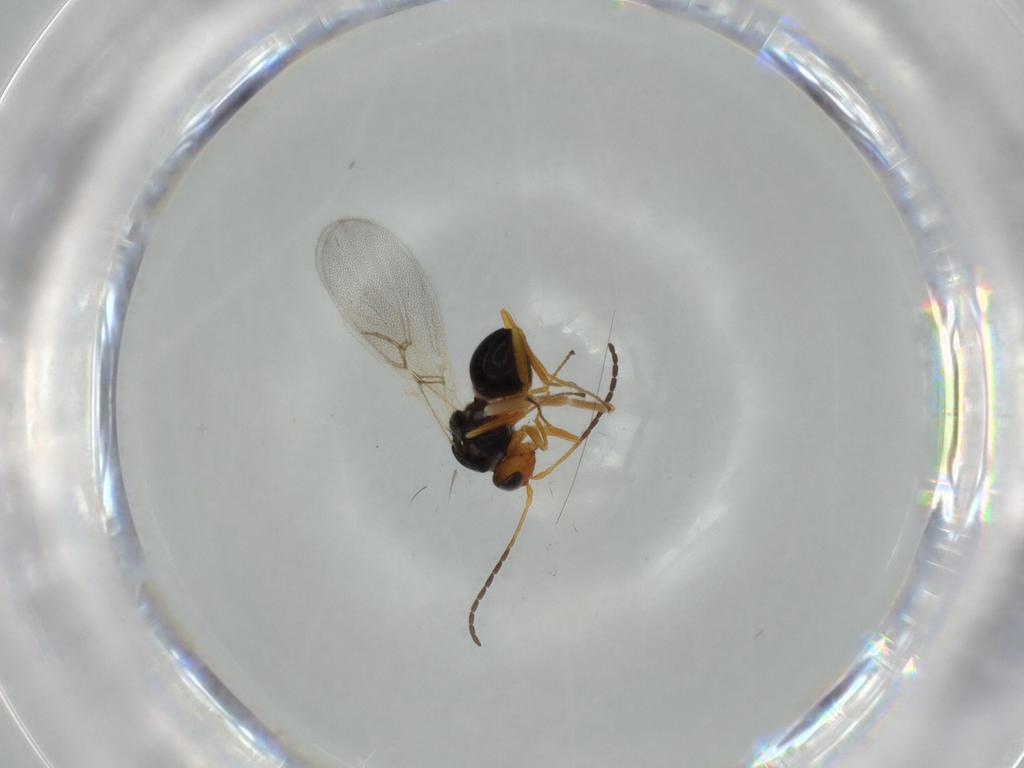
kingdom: Animalia
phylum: Arthropoda
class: Insecta
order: Hymenoptera
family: Figitidae
